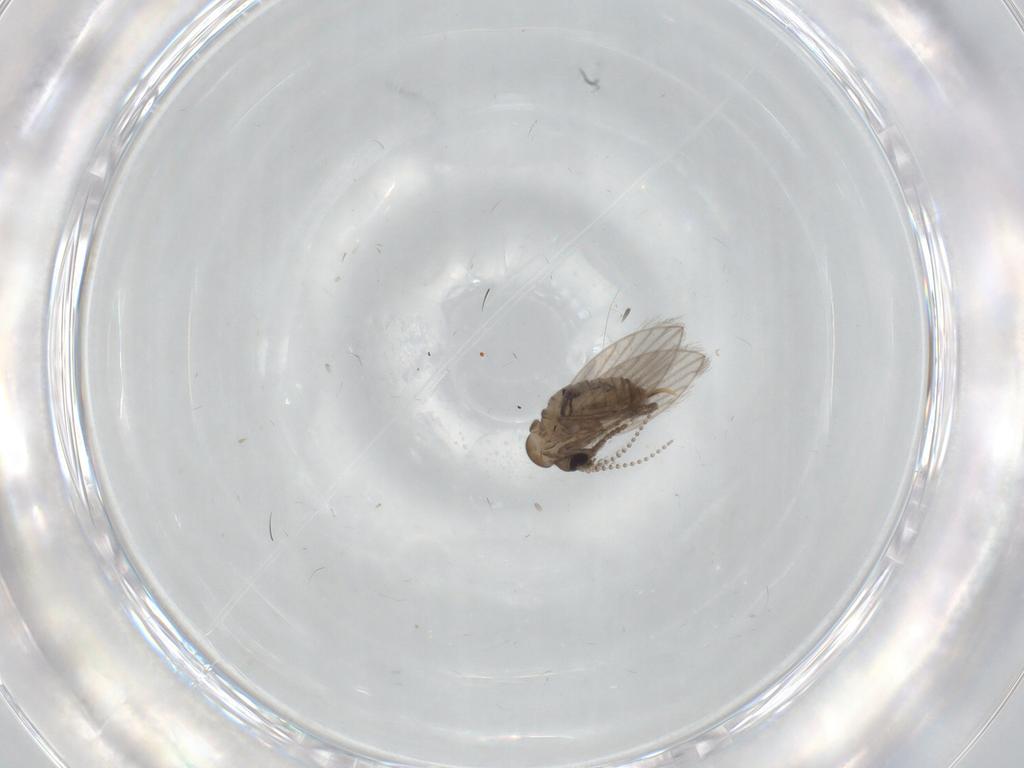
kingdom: Animalia
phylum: Arthropoda
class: Insecta
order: Diptera
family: Psychodidae
